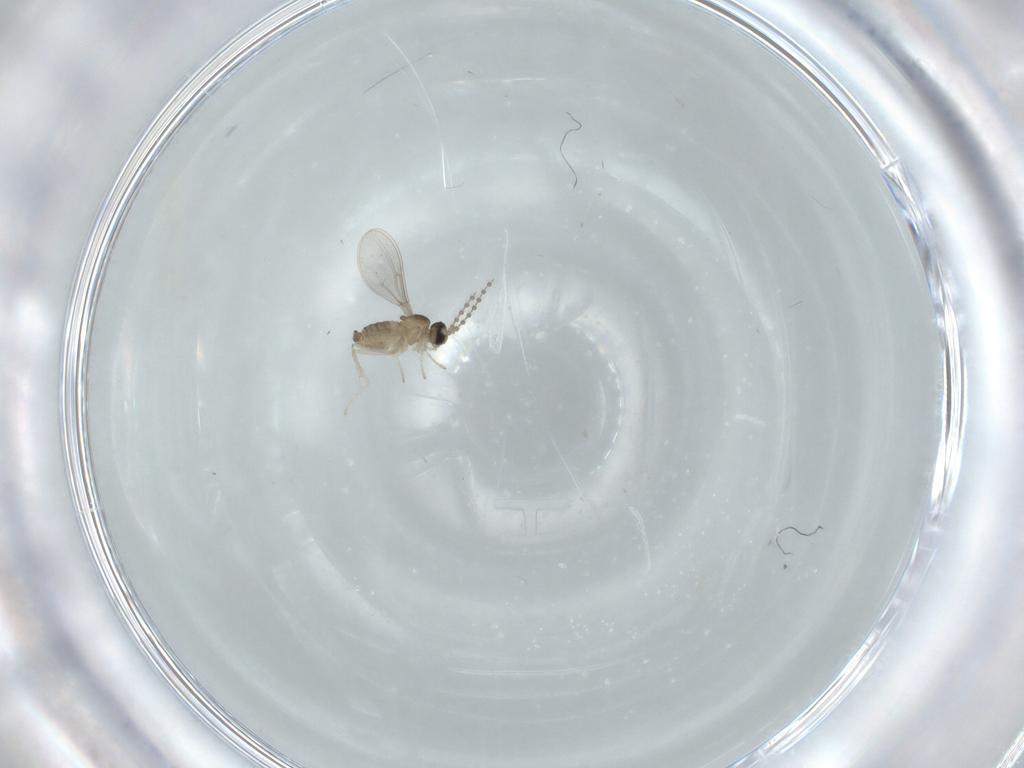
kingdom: Animalia
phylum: Arthropoda
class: Insecta
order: Diptera
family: Cecidomyiidae
